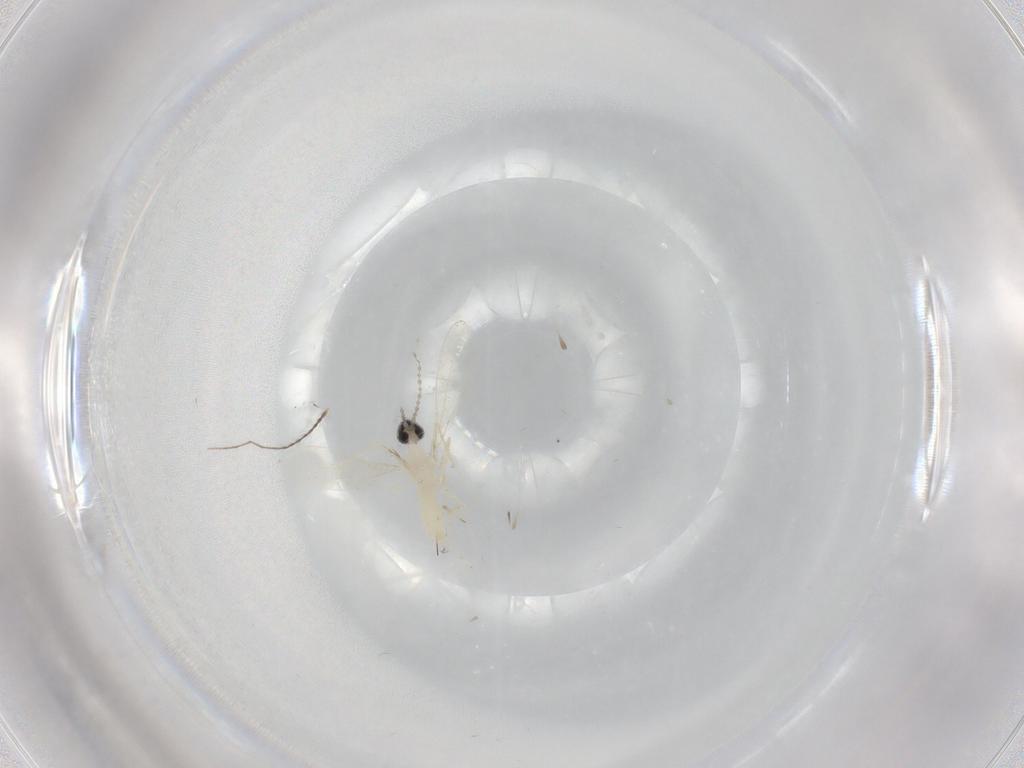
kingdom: Animalia
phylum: Arthropoda
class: Insecta
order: Diptera
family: Cecidomyiidae
